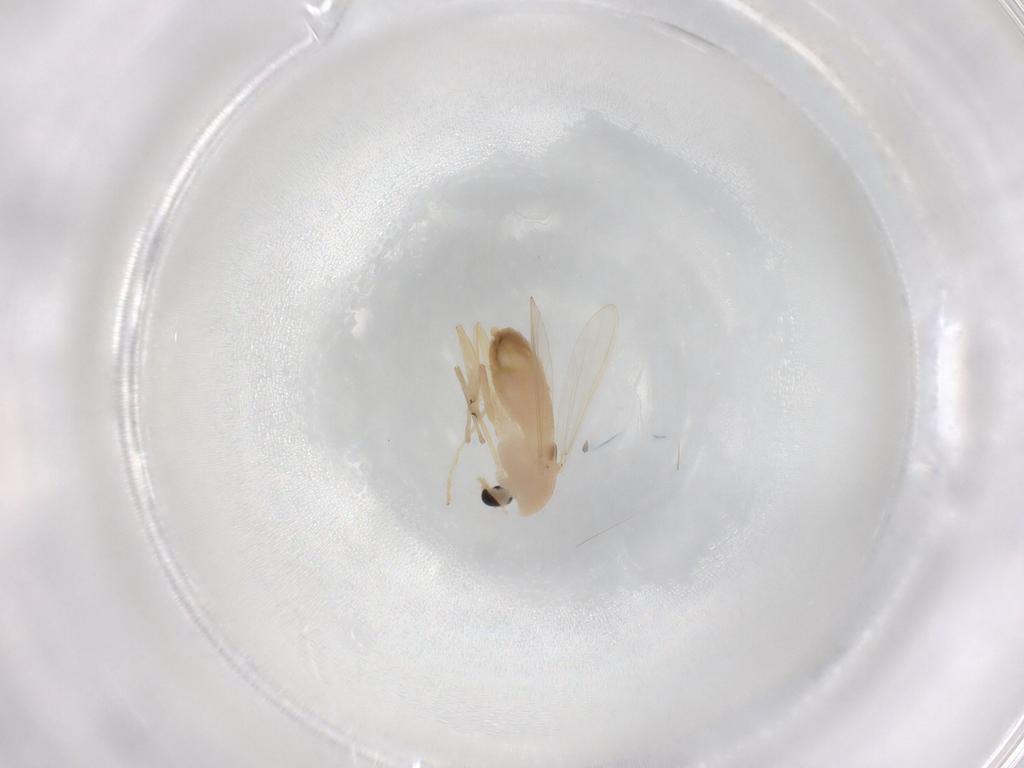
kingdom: Animalia
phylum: Arthropoda
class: Insecta
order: Diptera
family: Chironomidae
